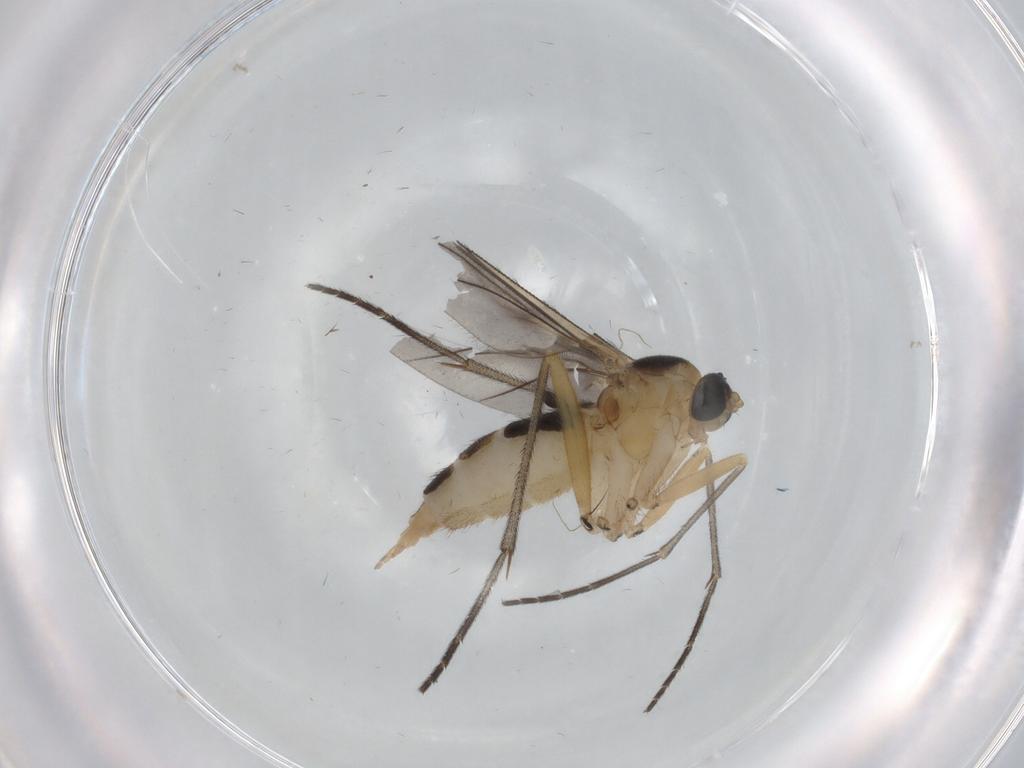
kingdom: Animalia
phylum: Arthropoda
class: Insecta
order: Diptera
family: Sciaridae
